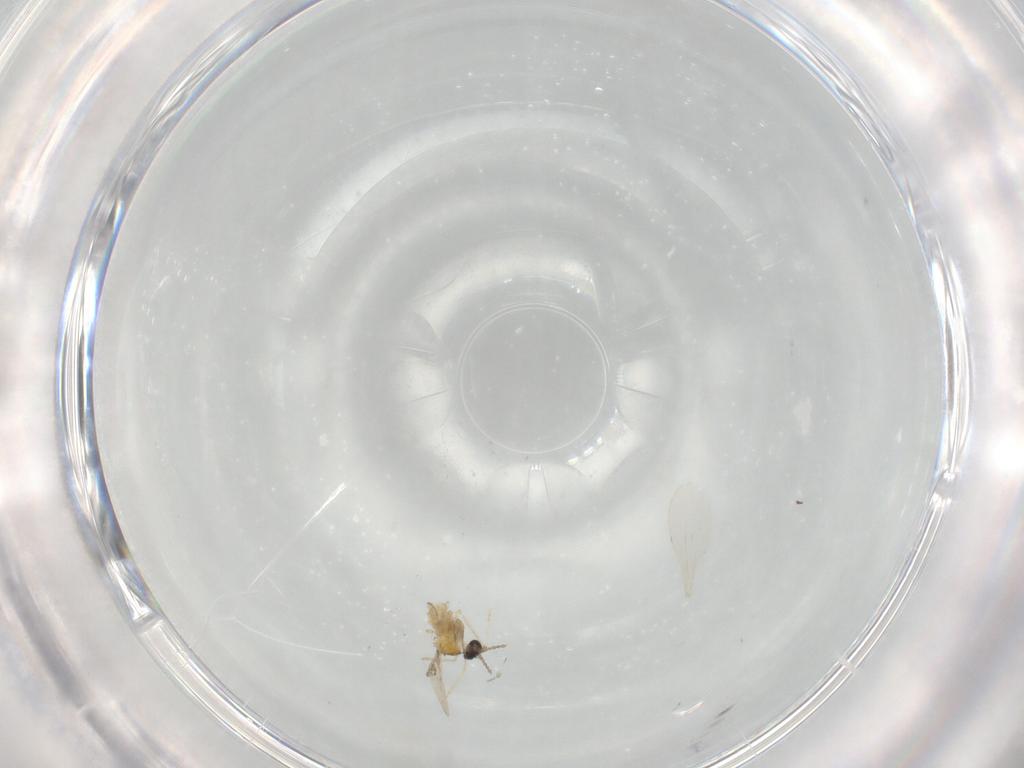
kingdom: Animalia
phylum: Arthropoda
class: Insecta
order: Diptera
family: Cecidomyiidae
